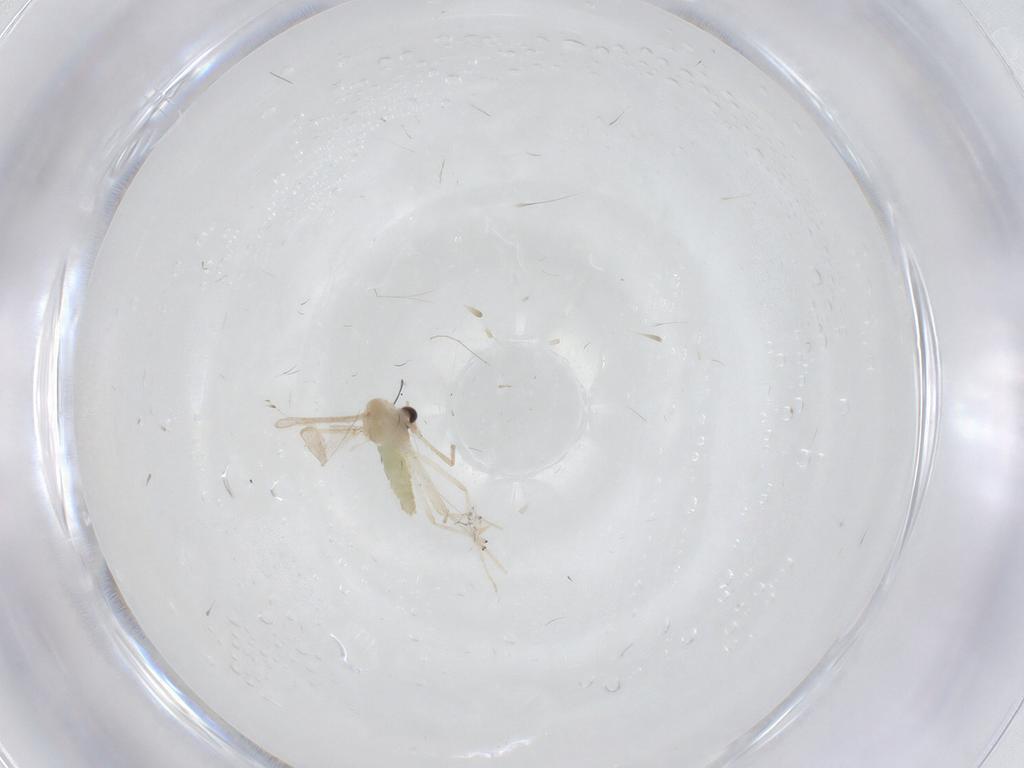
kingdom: Animalia
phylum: Arthropoda
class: Insecta
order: Diptera
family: Chironomidae
